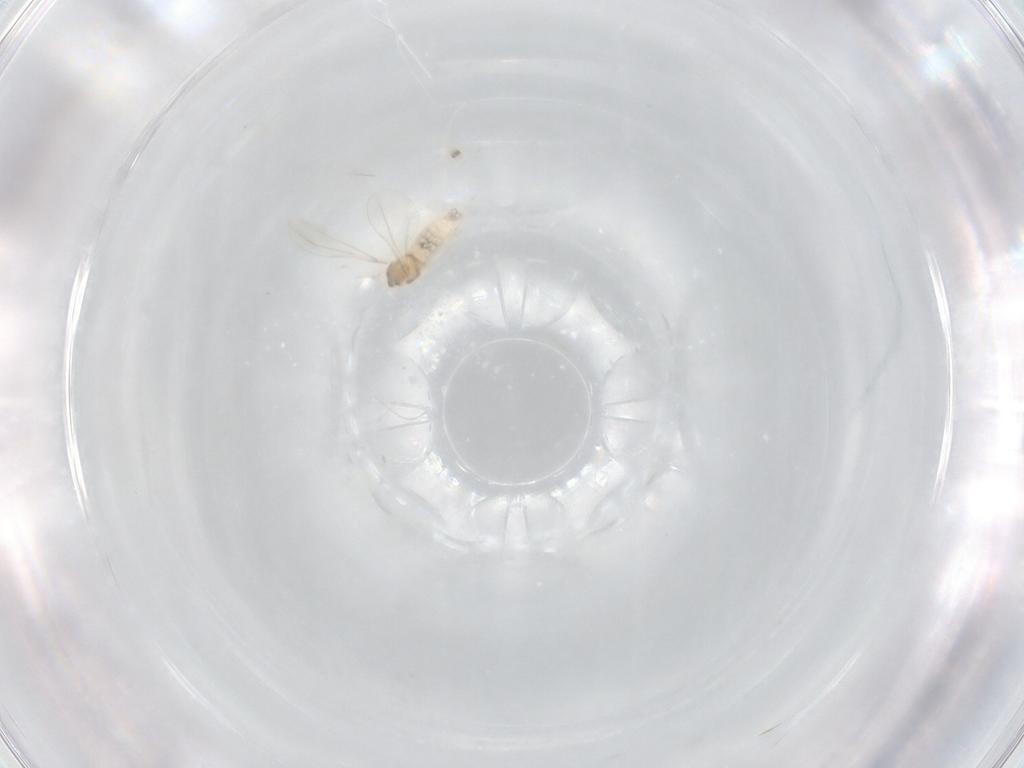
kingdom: Animalia
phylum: Arthropoda
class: Insecta
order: Diptera
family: Cecidomyiidae
